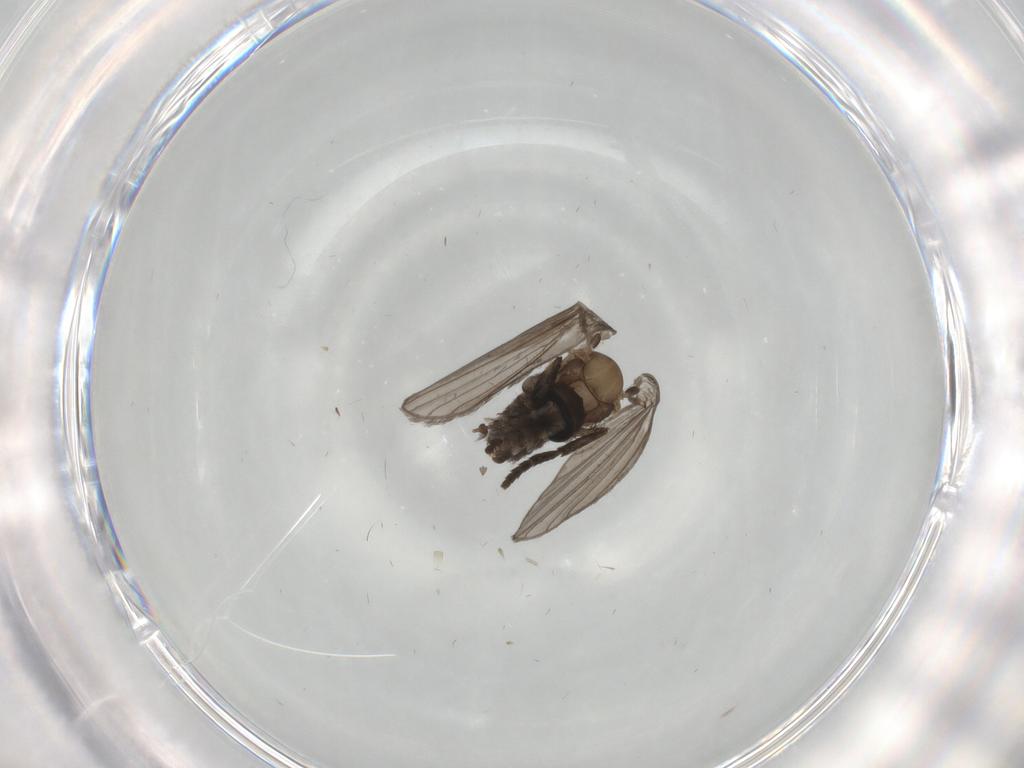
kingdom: Animalia
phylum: Arthropoda
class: Insecta
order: Diptera
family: Psychodidae
